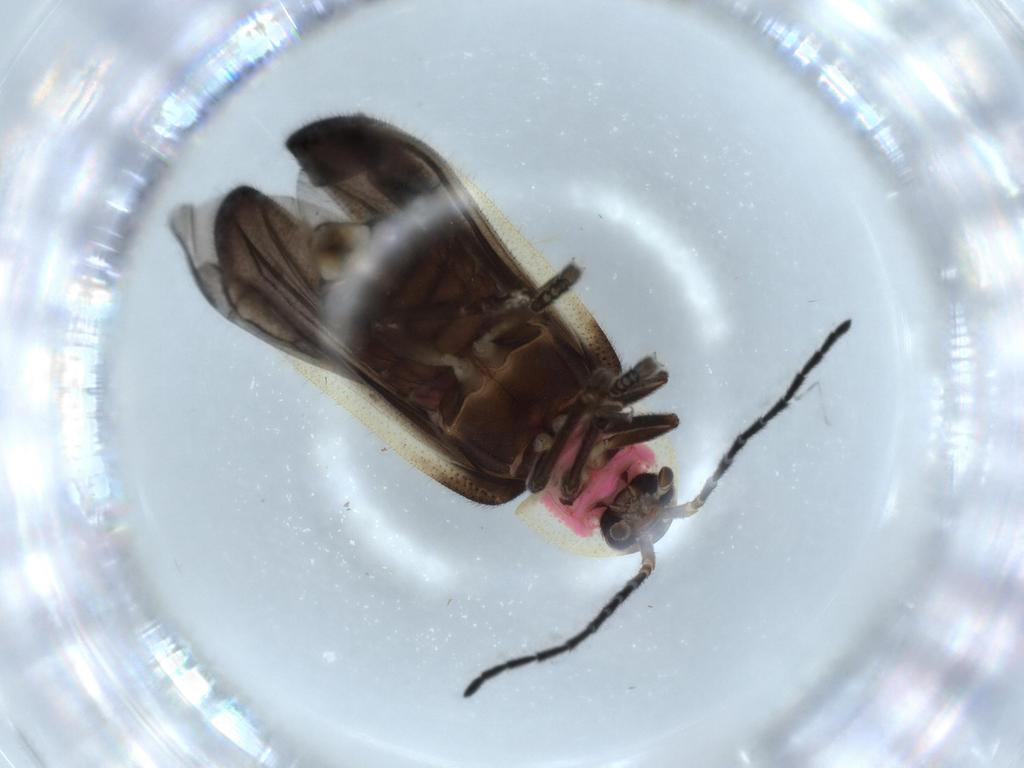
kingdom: Animalia
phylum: Arthropoda
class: Insecta
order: Coleoptera
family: Lampyridae
